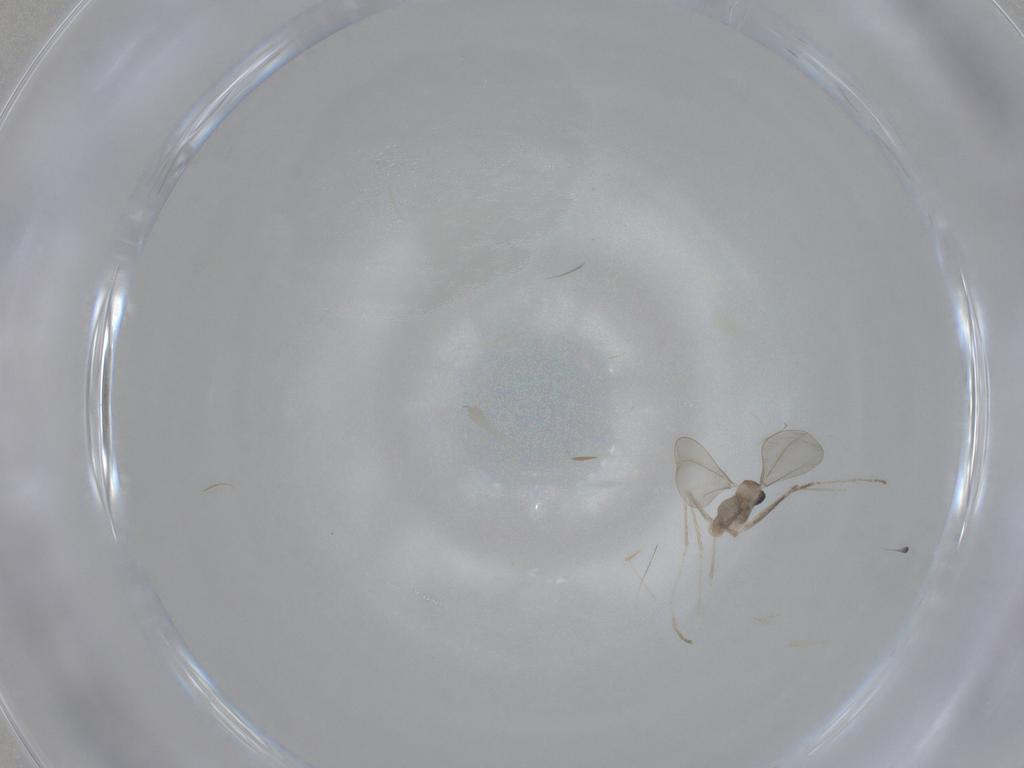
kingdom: Animalia
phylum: Arthropoda
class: Insecta
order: Diptera
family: Cecidomyiidae
